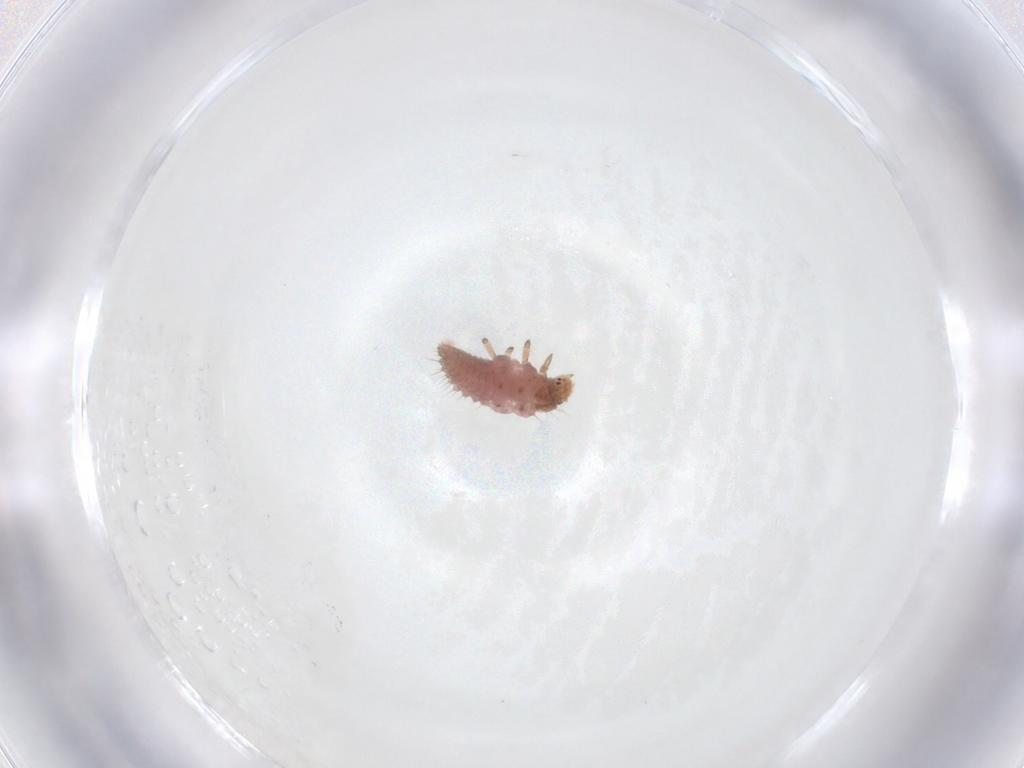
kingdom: Animalia
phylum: Arthropoda
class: Insecta
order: Coleoptera
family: Coccinellidae
